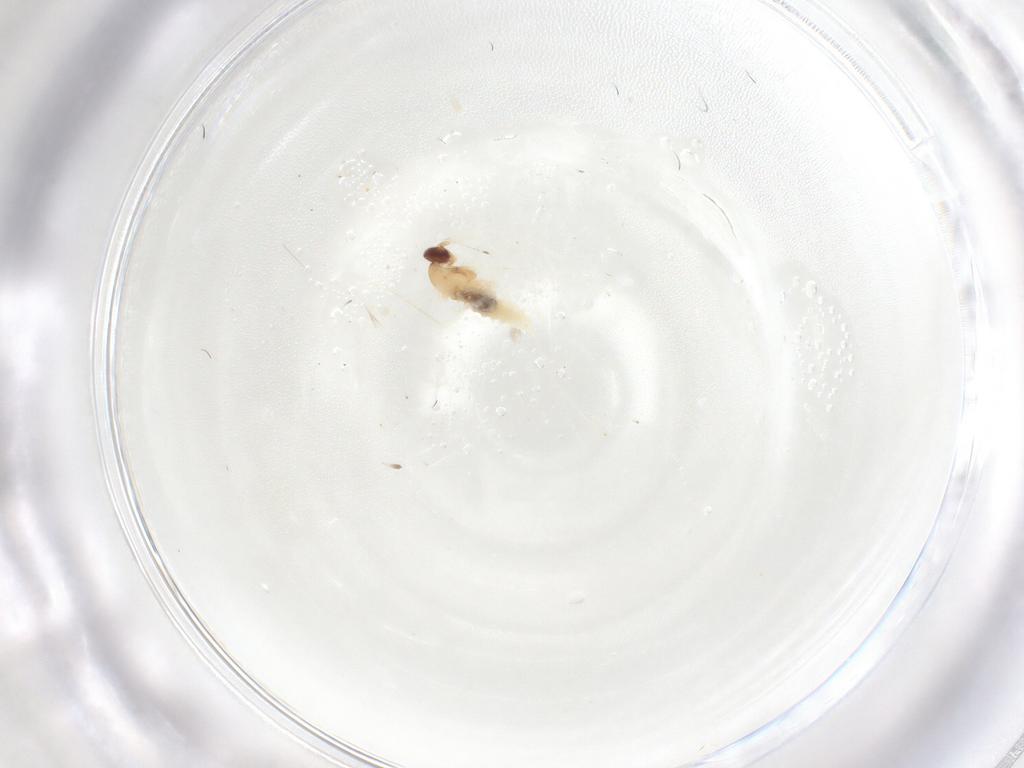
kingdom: Animalia
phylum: Arthropoda
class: Insecta
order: Diptera
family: Cecidomyiidae
